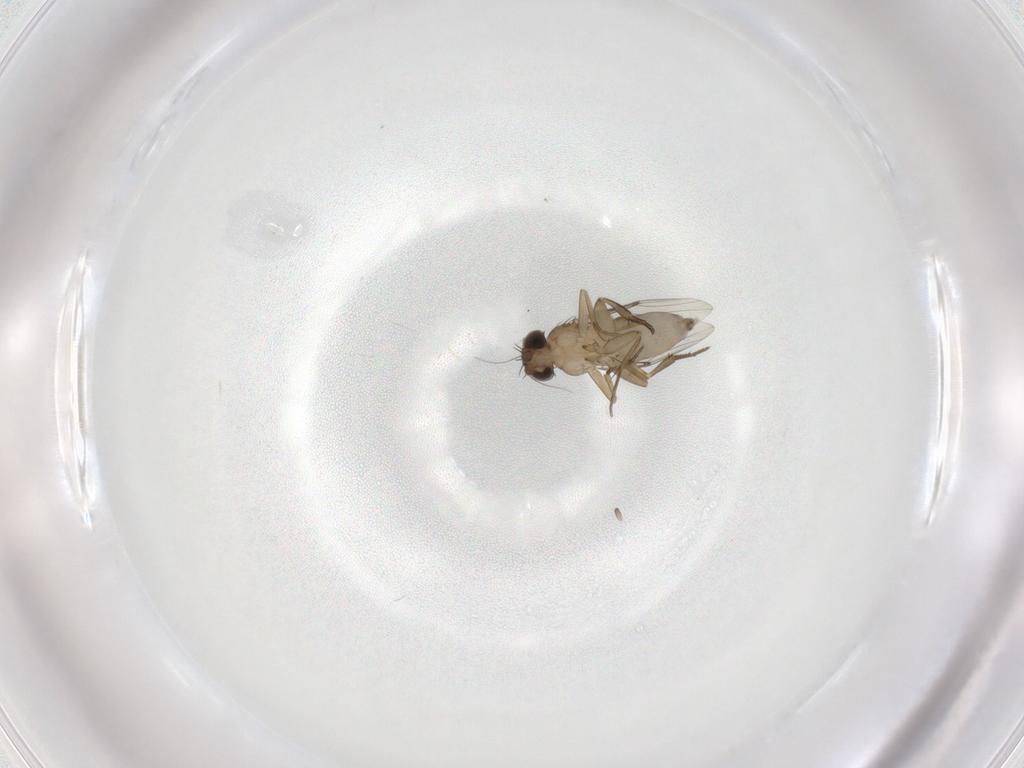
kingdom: Animalia
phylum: Arthropoda
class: Insecta
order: Diptera
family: Phoridae
